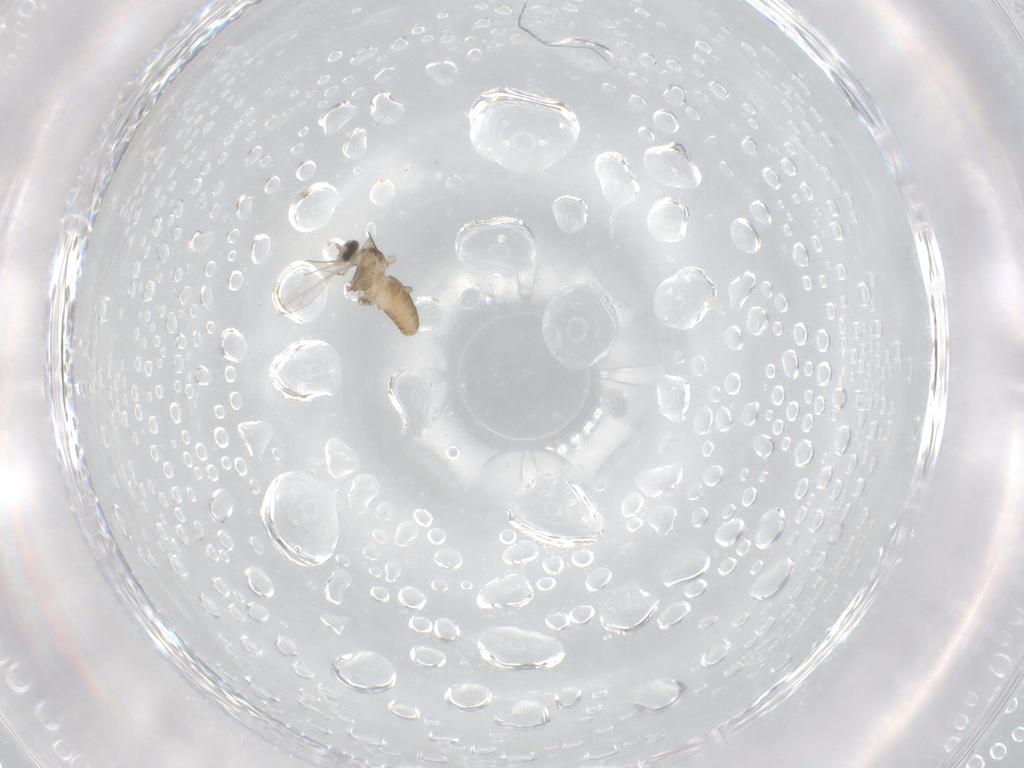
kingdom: Animalia
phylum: Arthropoda
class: Insecta
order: Diptera
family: Cecidomyiidae
